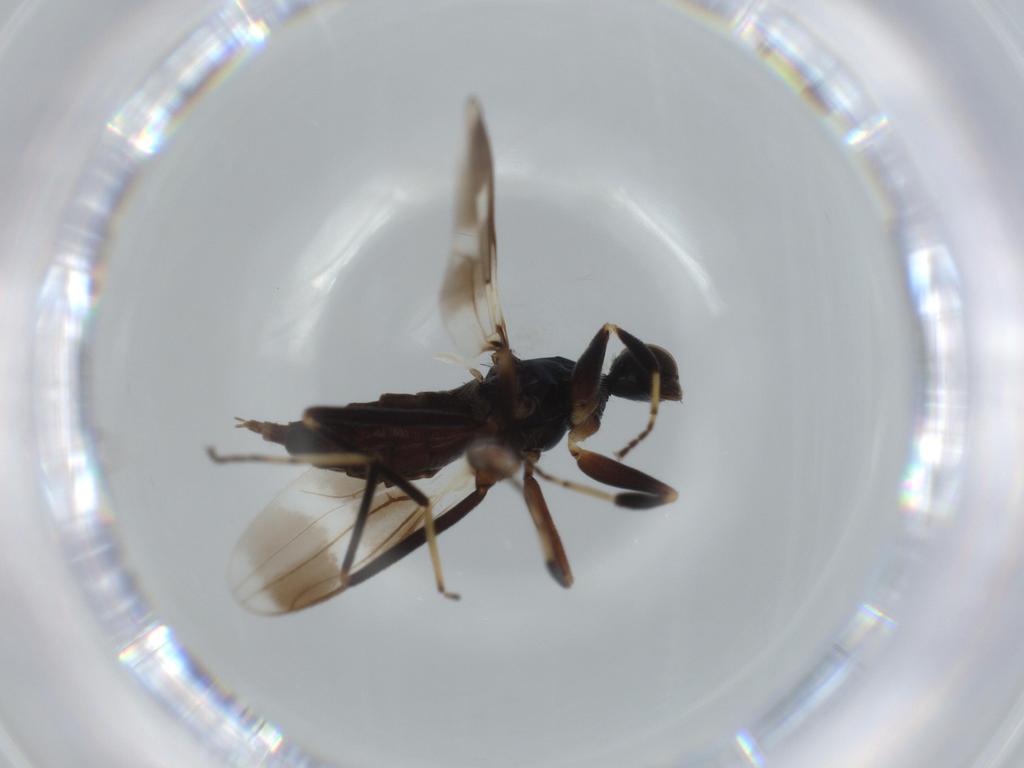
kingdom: Animalia
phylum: Arthropoda
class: Insecta
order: Diptera
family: Hybotidae
